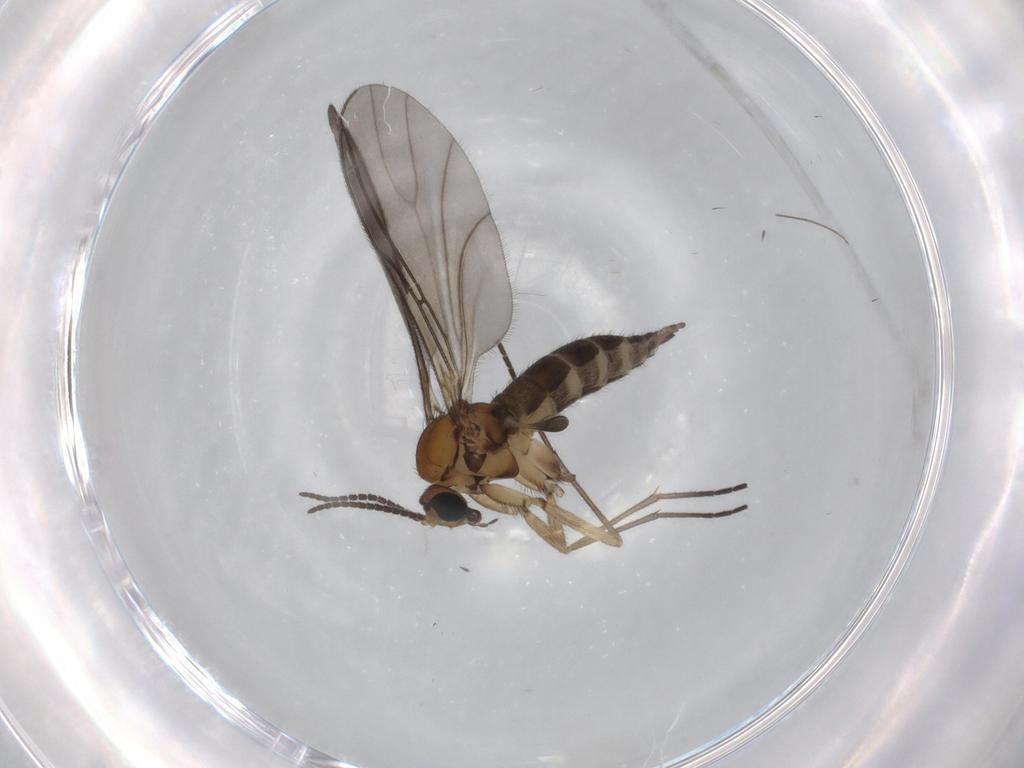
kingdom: Animalia
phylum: Arthropoda
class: Insecta
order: Diptera
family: Sciaridae
